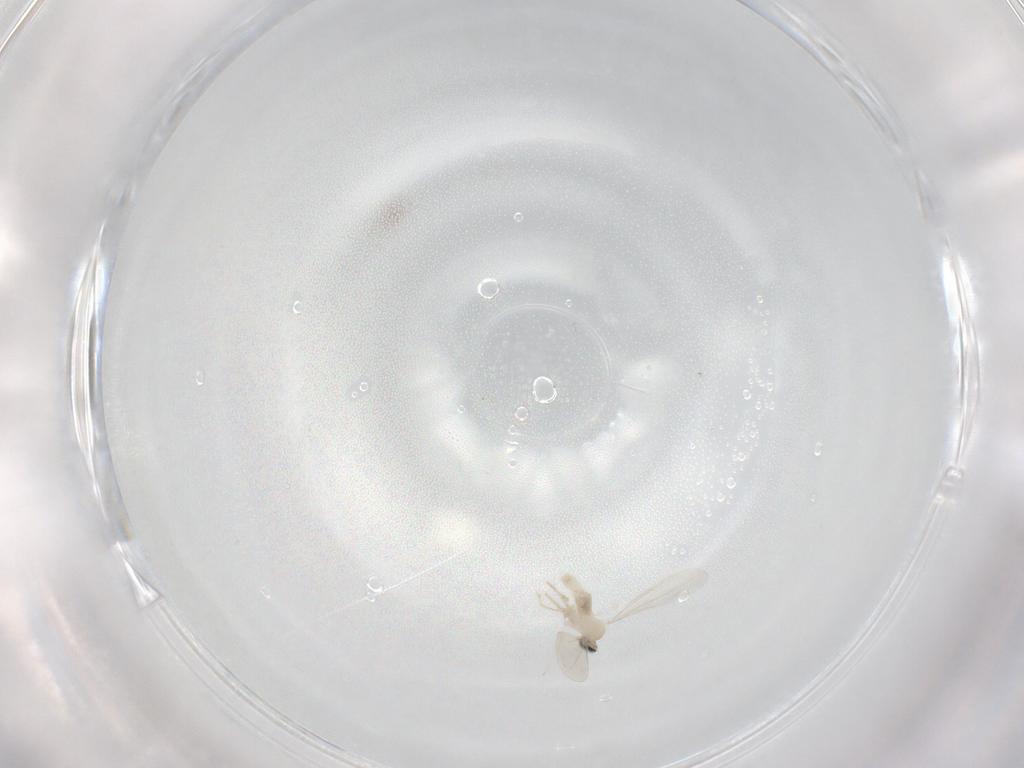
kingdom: Animalia
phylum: Arthropoda
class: Insecta
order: Diptera
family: Cecidomyiidae
